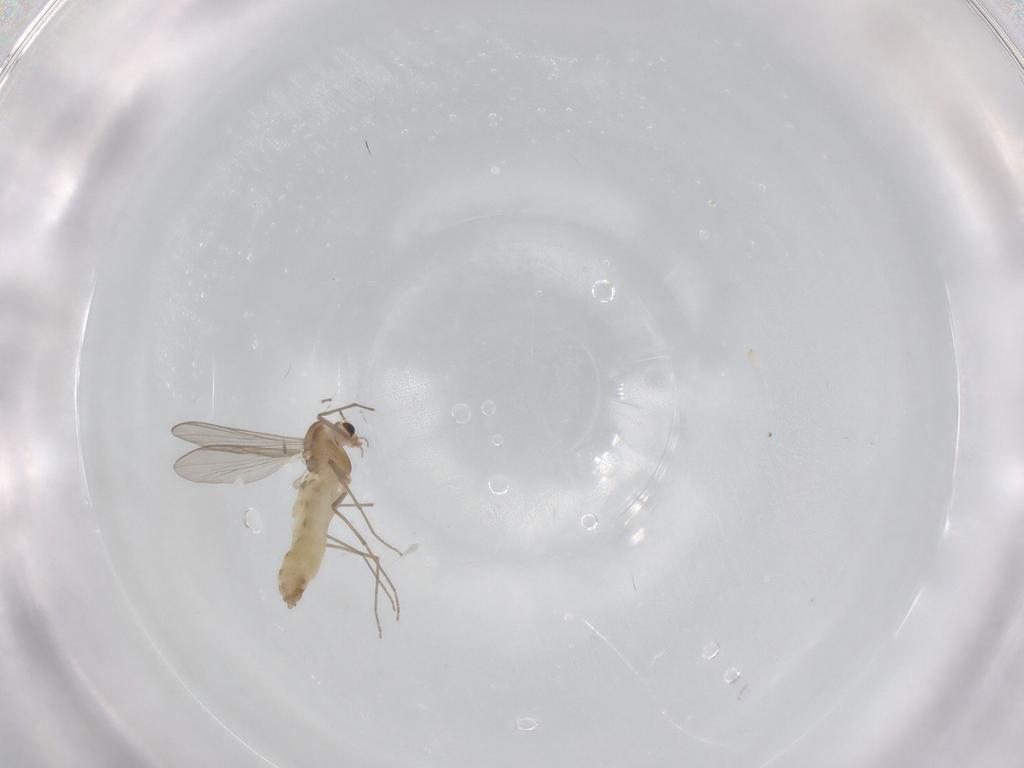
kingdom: Animalia
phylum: Arthropoda
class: Insecta
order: Diptera
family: Chironomidae
